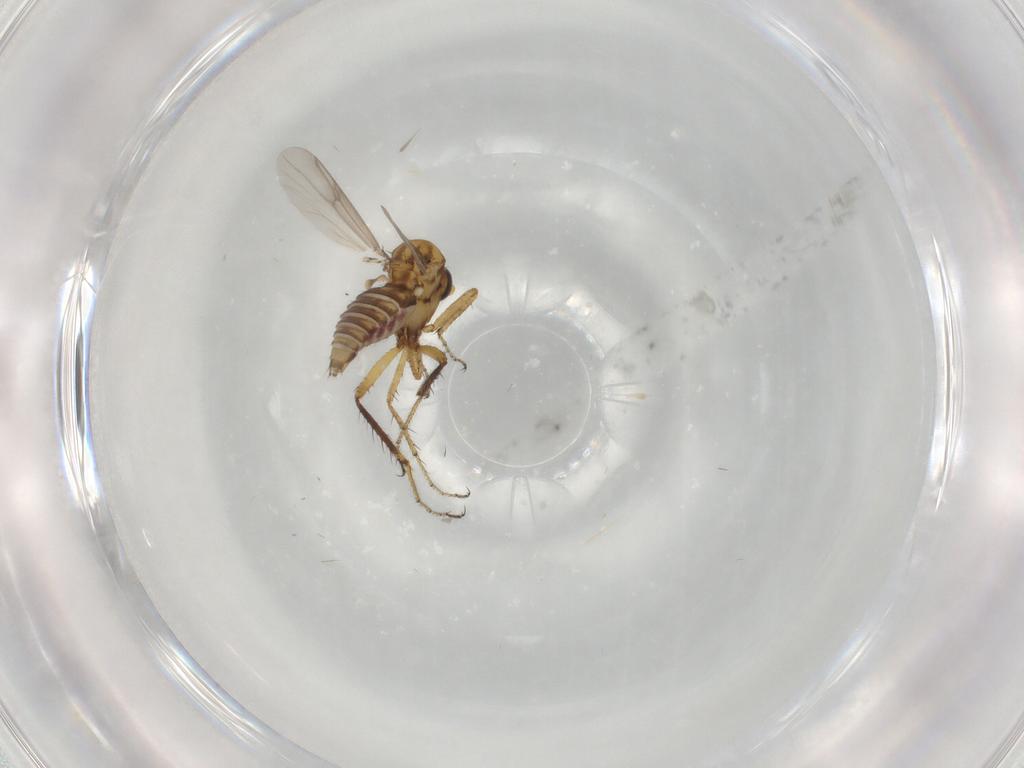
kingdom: Animalia
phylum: Arthropoda
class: Insecta
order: Diptera
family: Ceratopogonidae
